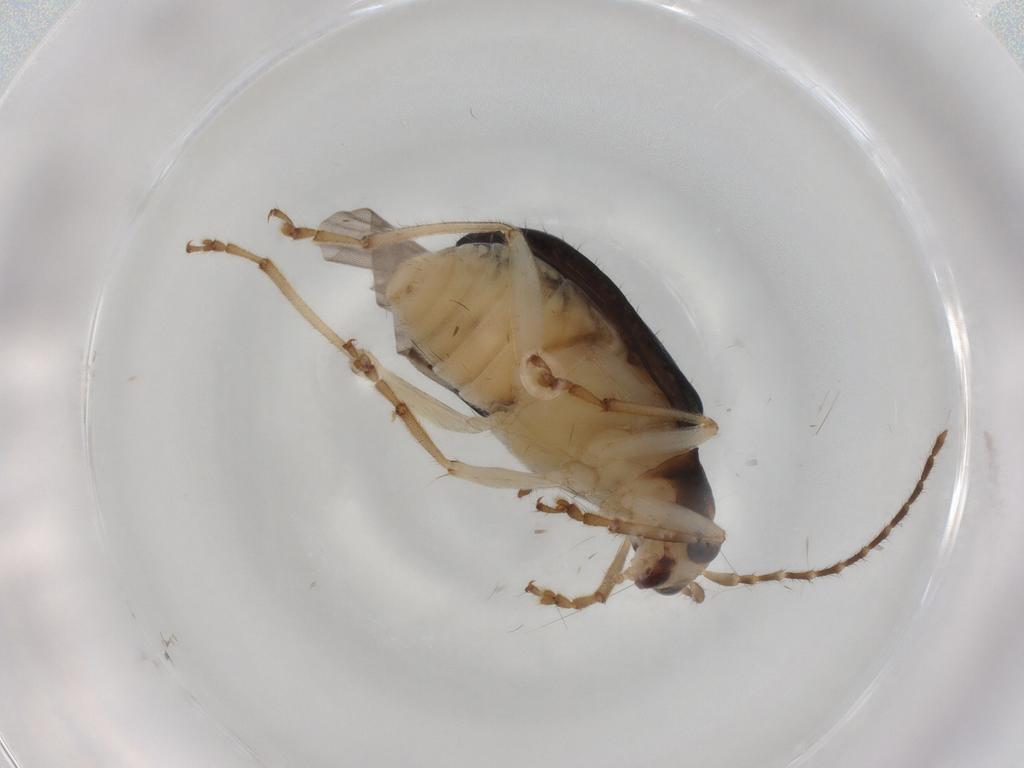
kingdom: Animalia
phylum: Arthropoda
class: Insecta
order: Coleoptera
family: Chrysomelidae
